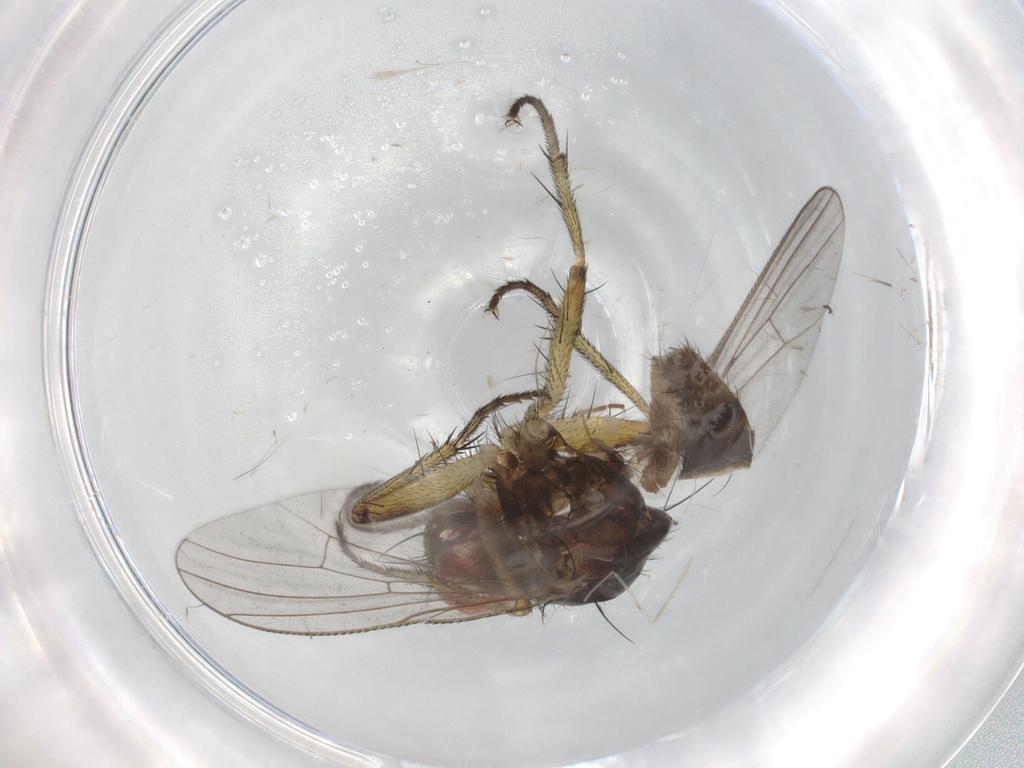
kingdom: Animalia
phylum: Arthropoda
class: Insecta
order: Diptera
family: Muscidae
